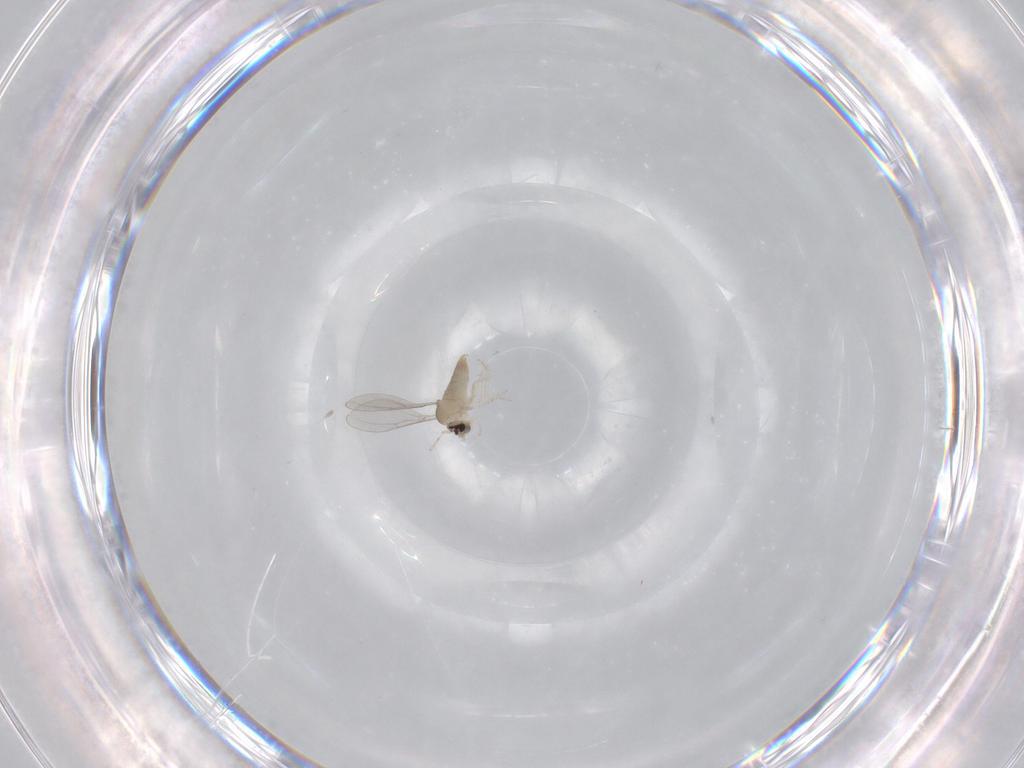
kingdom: Animalia
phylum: Arthropoda
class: Insecta
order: Diptera
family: Cecidomyiidae
